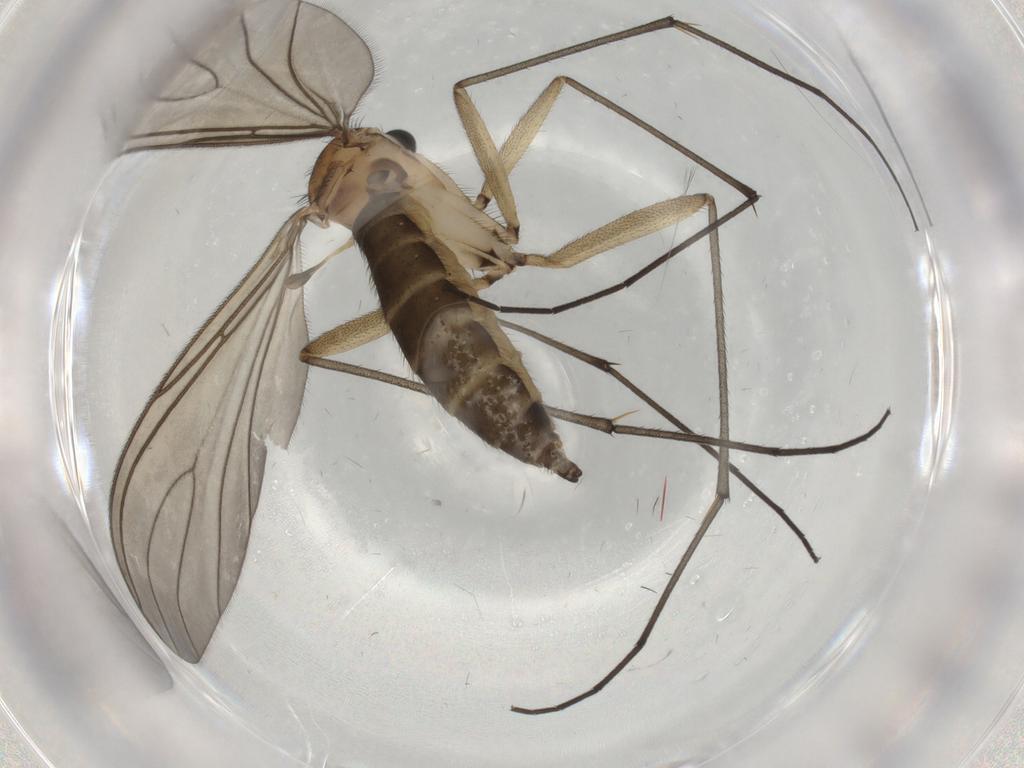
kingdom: Animalia
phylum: Arthropoda
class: Insecta
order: Diptera
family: Sciaridae
